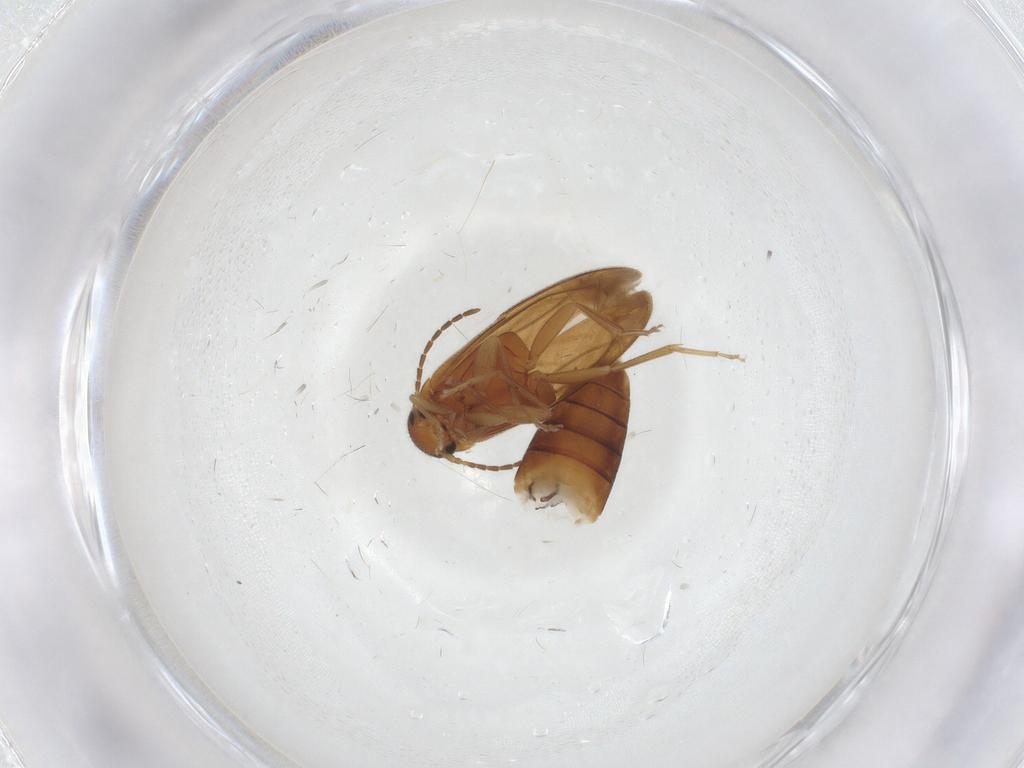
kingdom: Animalia
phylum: Arthropoda
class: Insecta
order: Coleoptera
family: Scraptiidae
